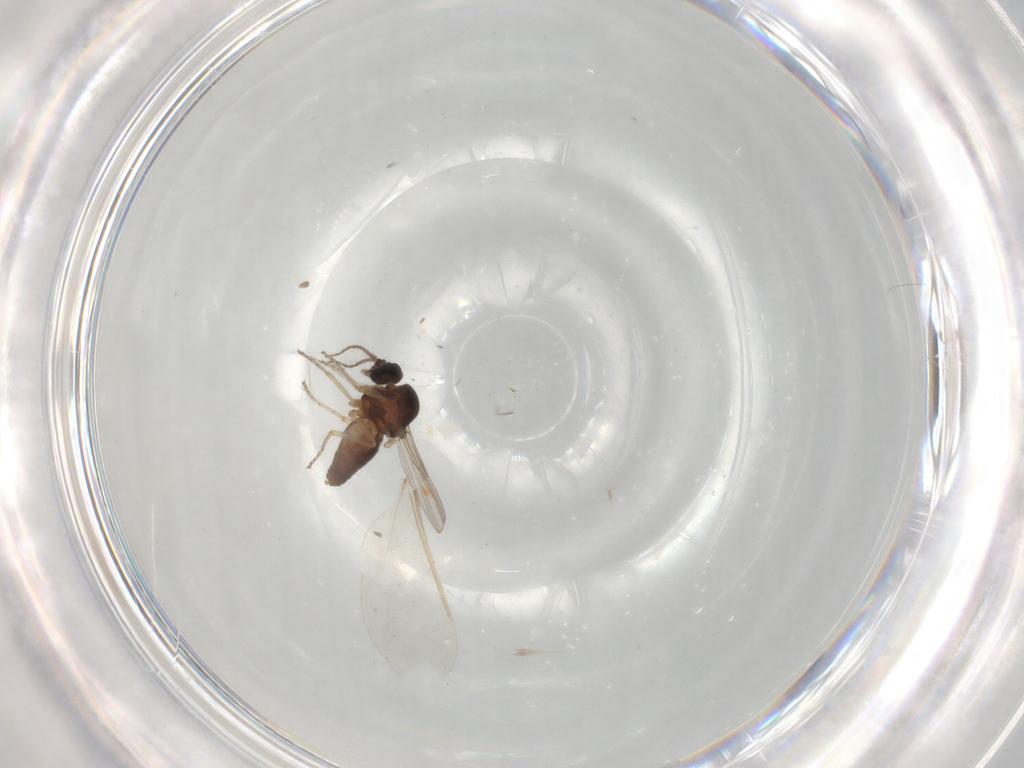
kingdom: Animalia
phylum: Arthropoda
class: Insecta
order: Diptera
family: Ceratopogonidae
